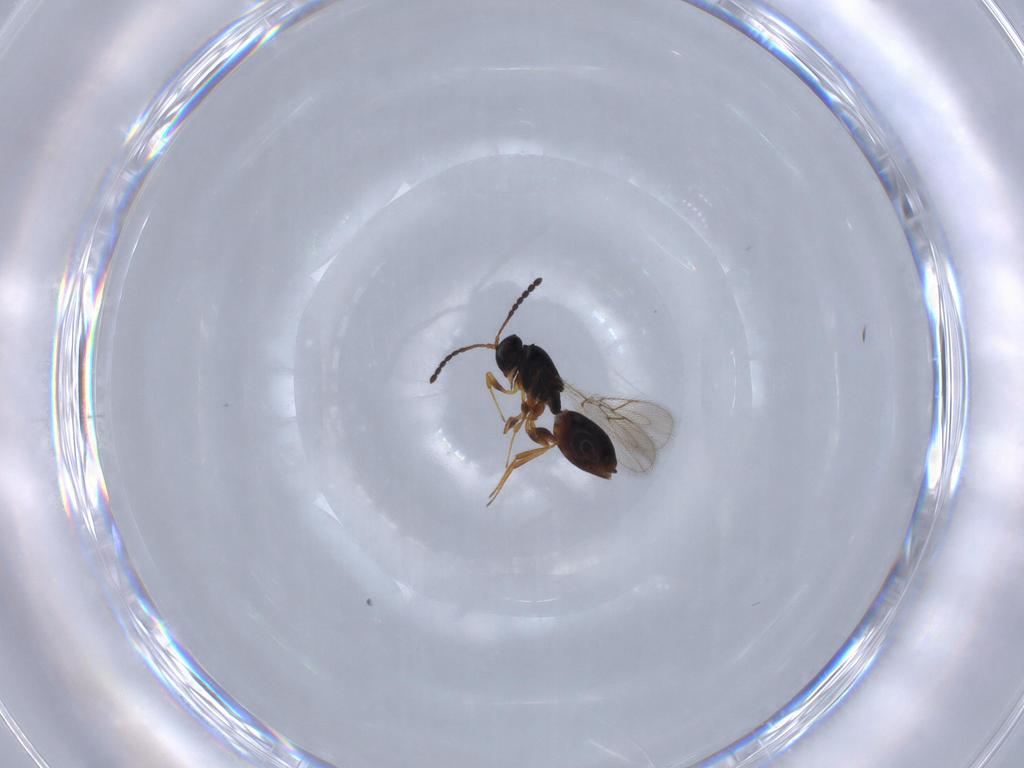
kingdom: Animalia
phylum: Arthropoda
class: Insecta
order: Hymenoptera
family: Figitidae
